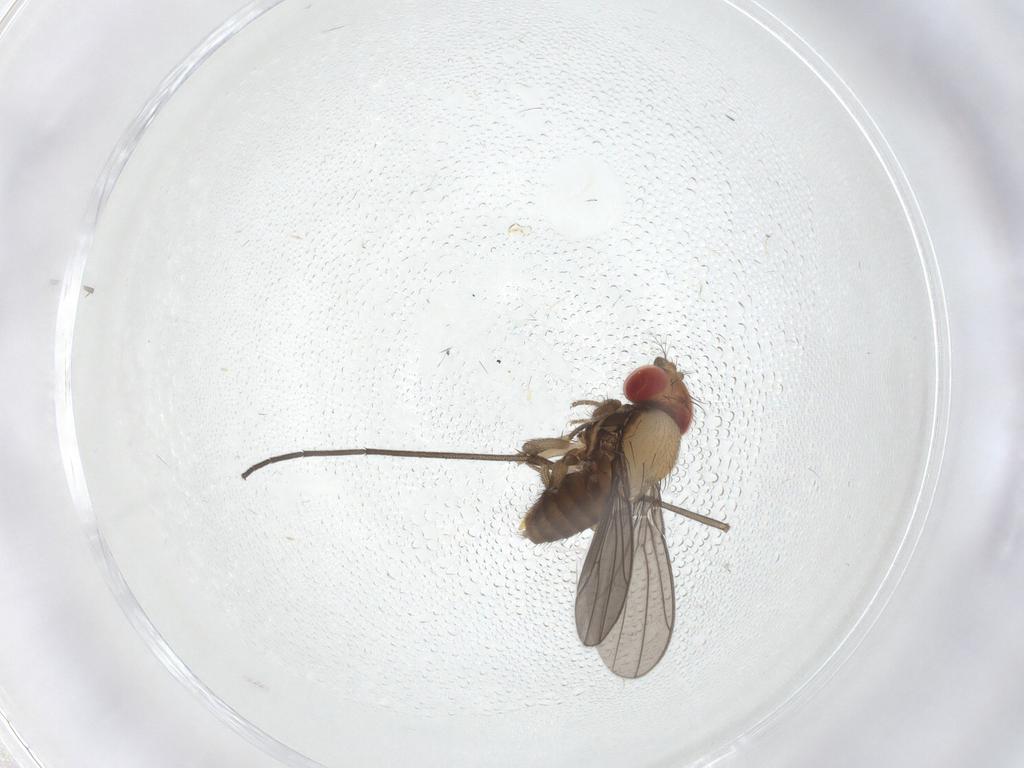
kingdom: Animalia
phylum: Arthropoda
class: Insecta
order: Diptera
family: Drosophilidae
